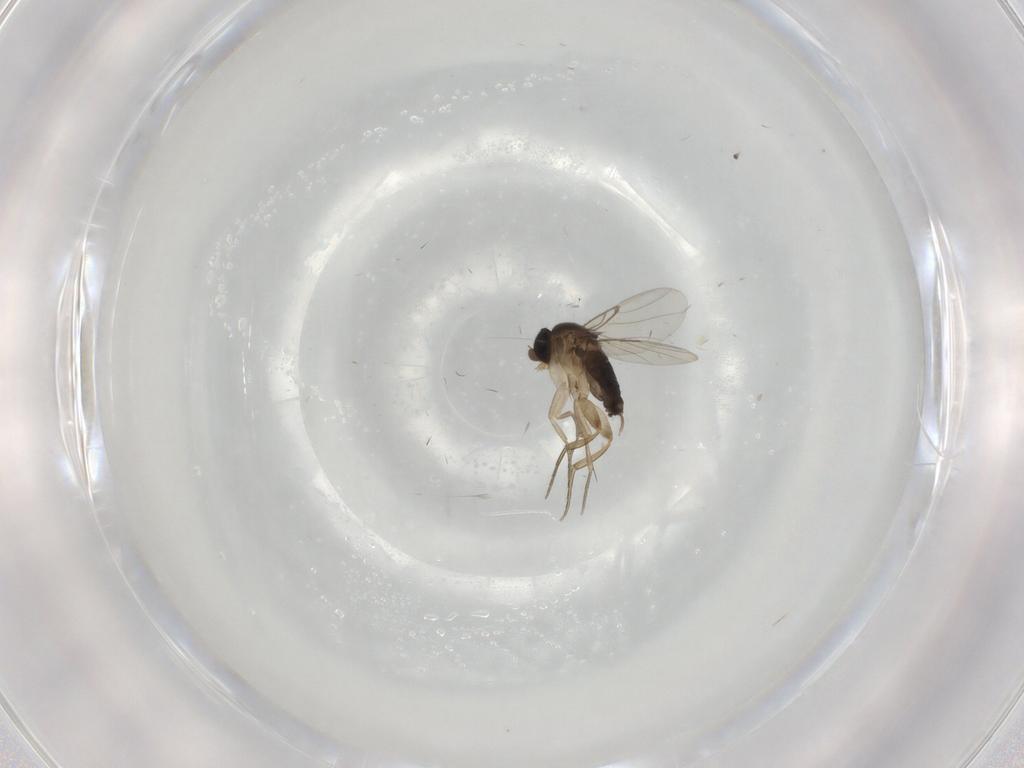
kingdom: Animalia
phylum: Arthropoda
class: Insecta
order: Diptera
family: Phoridae
